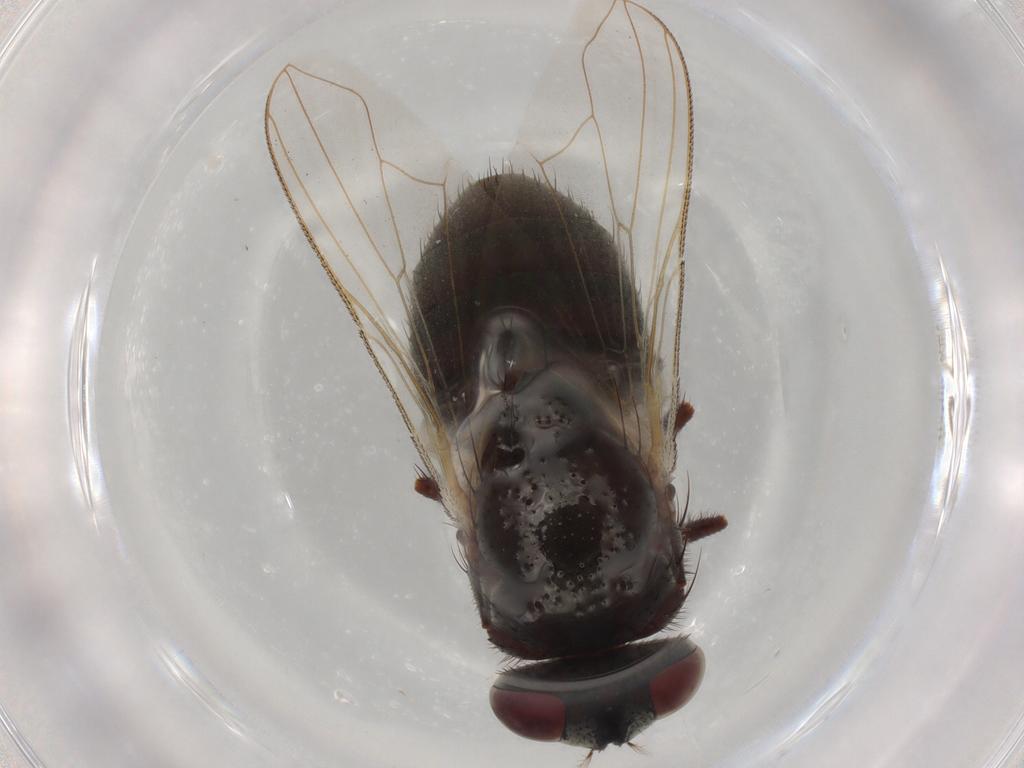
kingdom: Animalia
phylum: Arthropoda
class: Insecta
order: Diptera
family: Muscidae
